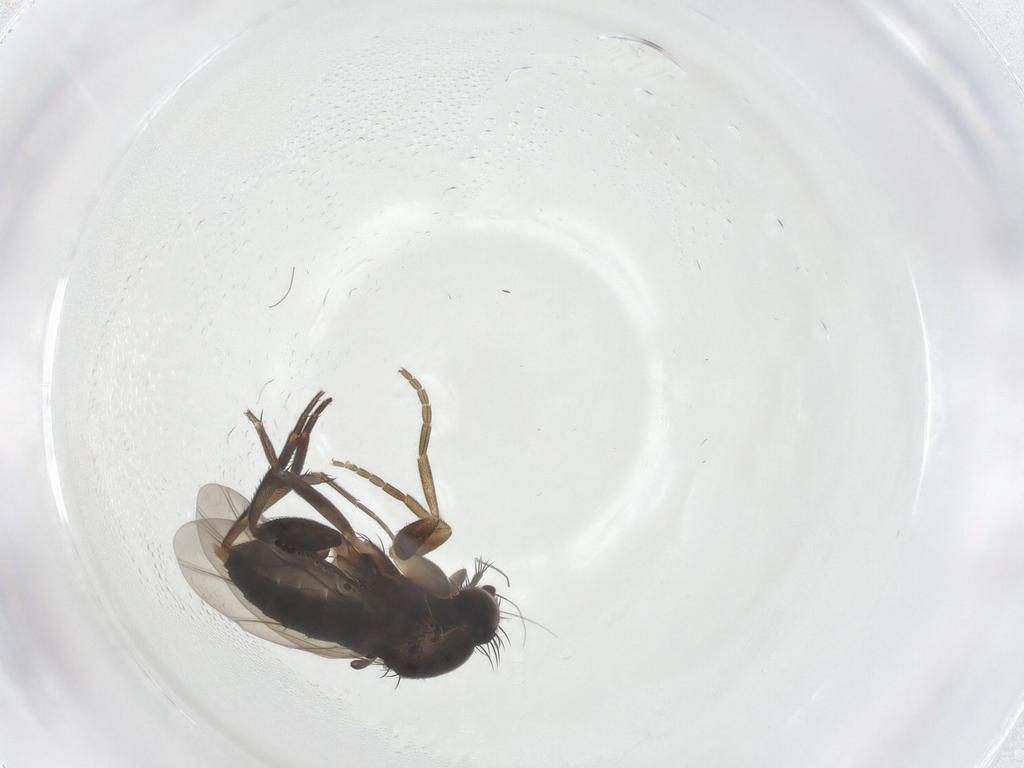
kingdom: Animalia
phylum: Arthropoda
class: Insecta
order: Diptera
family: Phoridae
